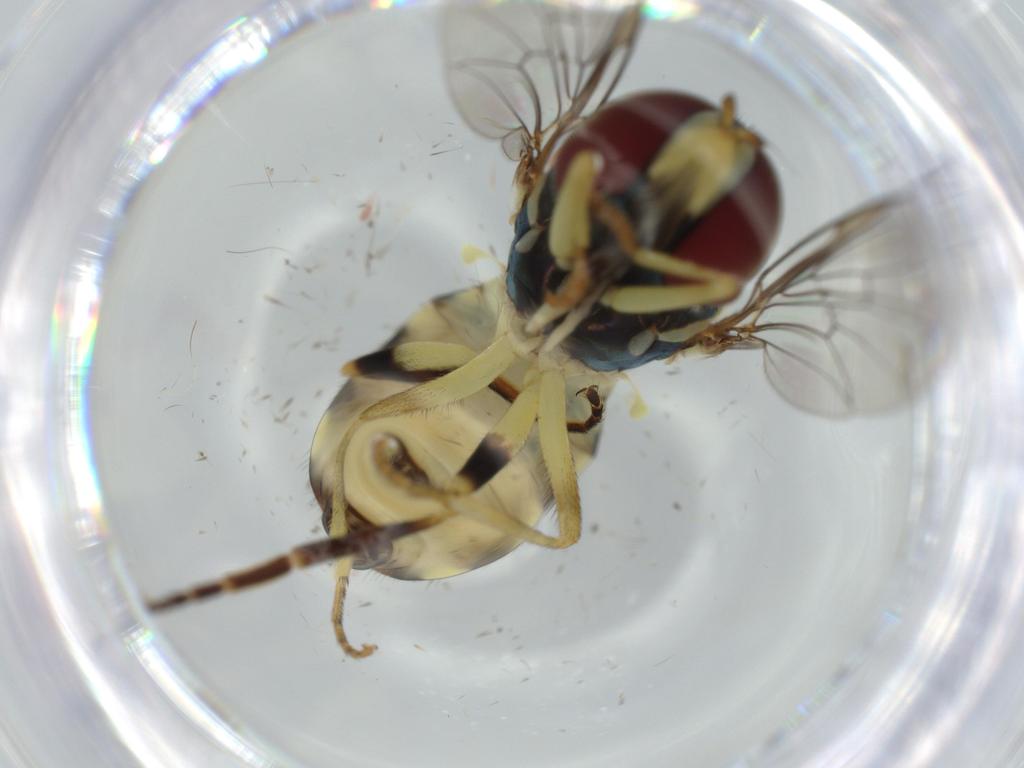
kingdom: Animalia
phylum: Arthropoda
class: Insecta
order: Diptera
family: Syrphidae
